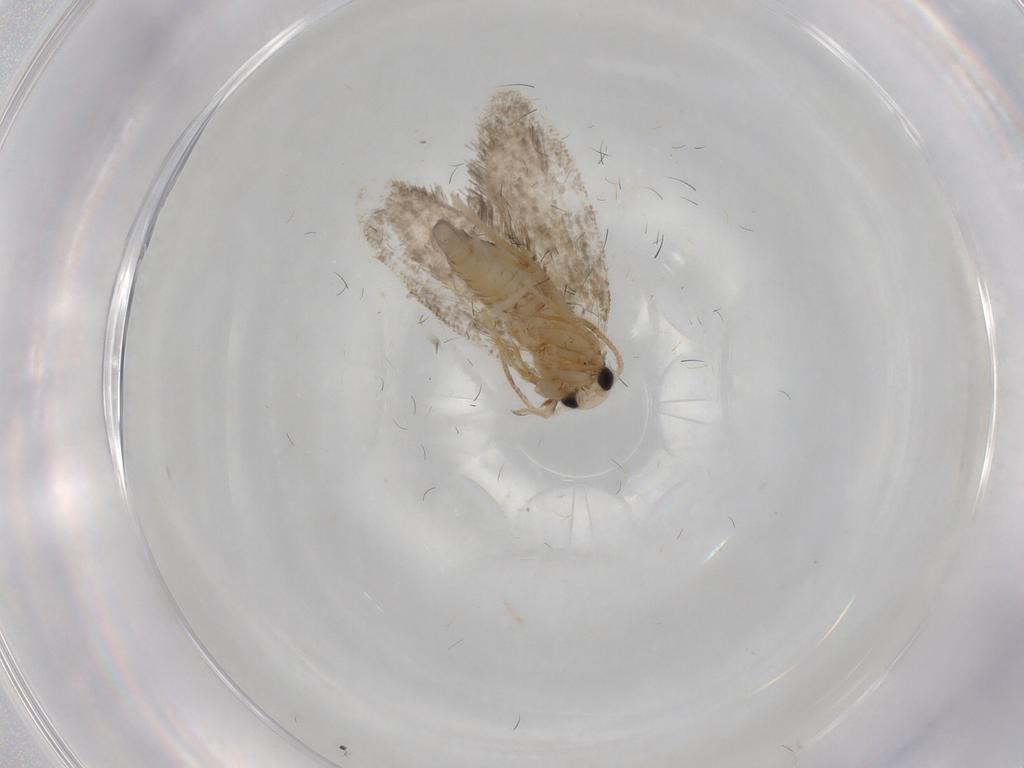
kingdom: Animalia
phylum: Arthropoda
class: Insecta
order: Lepidoptera
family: Psychidae
